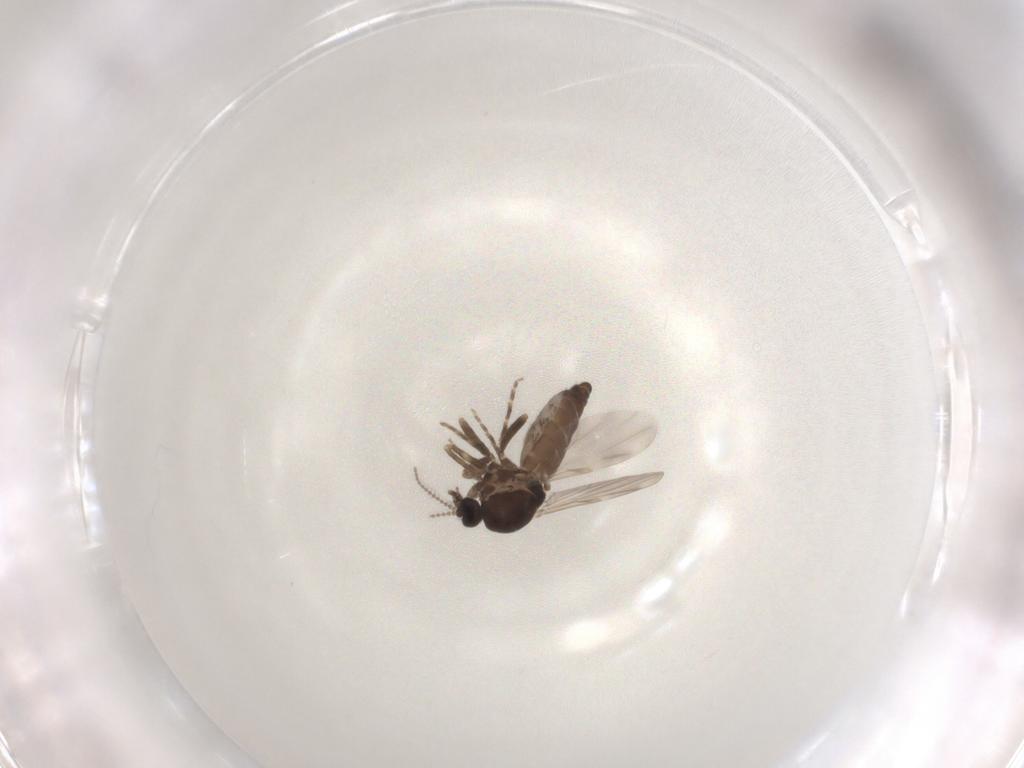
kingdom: Animalia
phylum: Arthropoda
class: Insecta
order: Diptera
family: Ceratopogonidae
